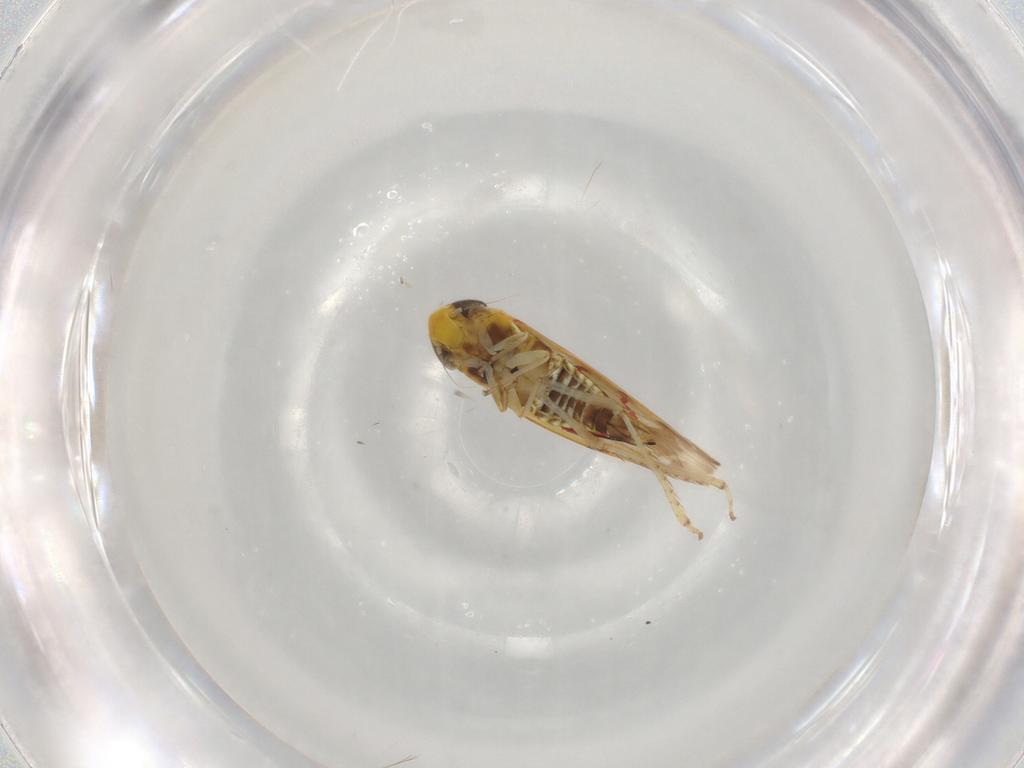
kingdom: Animalia
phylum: Arthropoda
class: Insecta
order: Hemiptera
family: Cicadellidae
